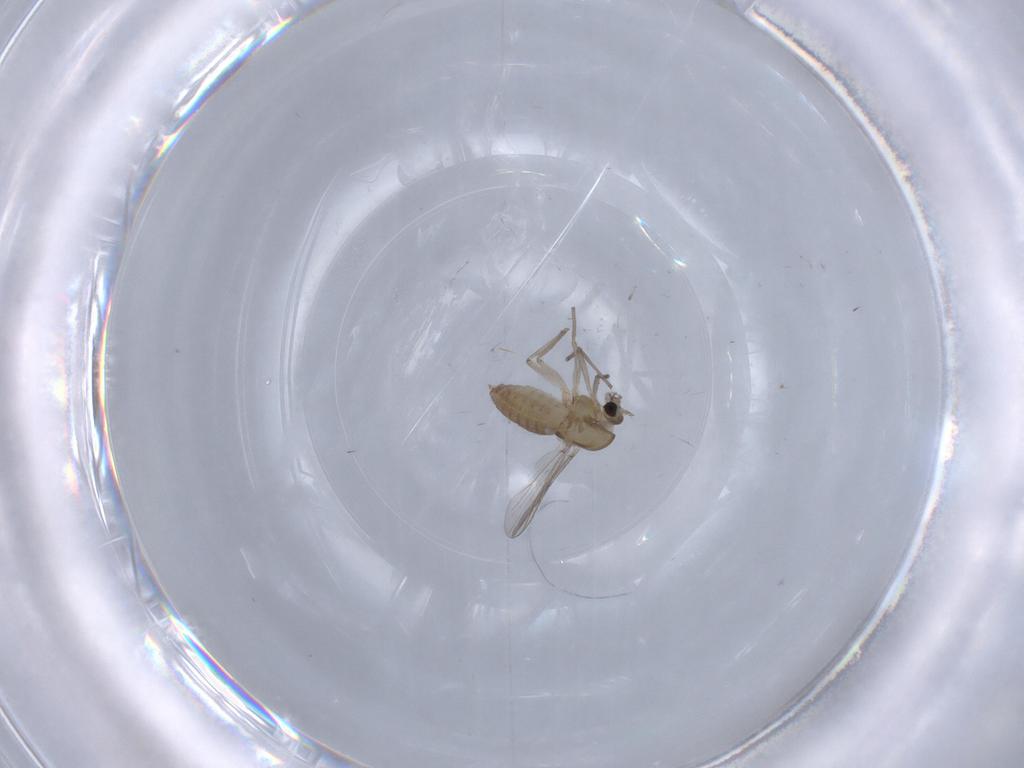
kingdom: Animalia
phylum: Arthropoda
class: Insecta
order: Diptera
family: Chironomidae
